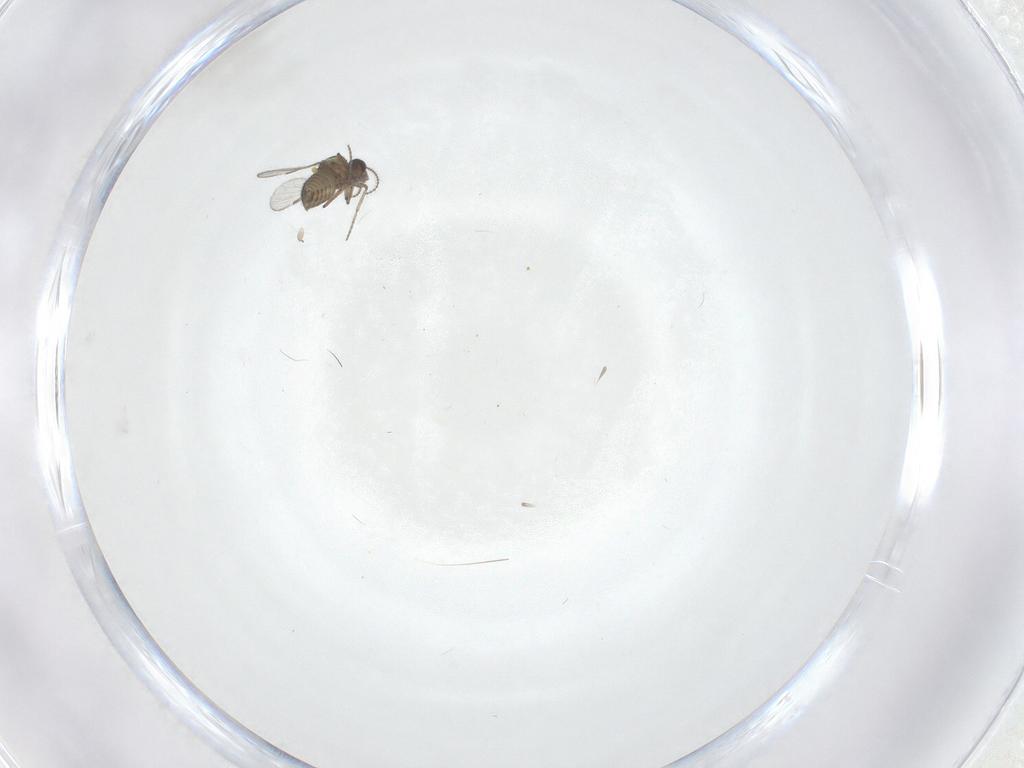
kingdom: Animalia
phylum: Arthropoda
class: Insecta
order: Diptera
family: Ceratopogonidae
